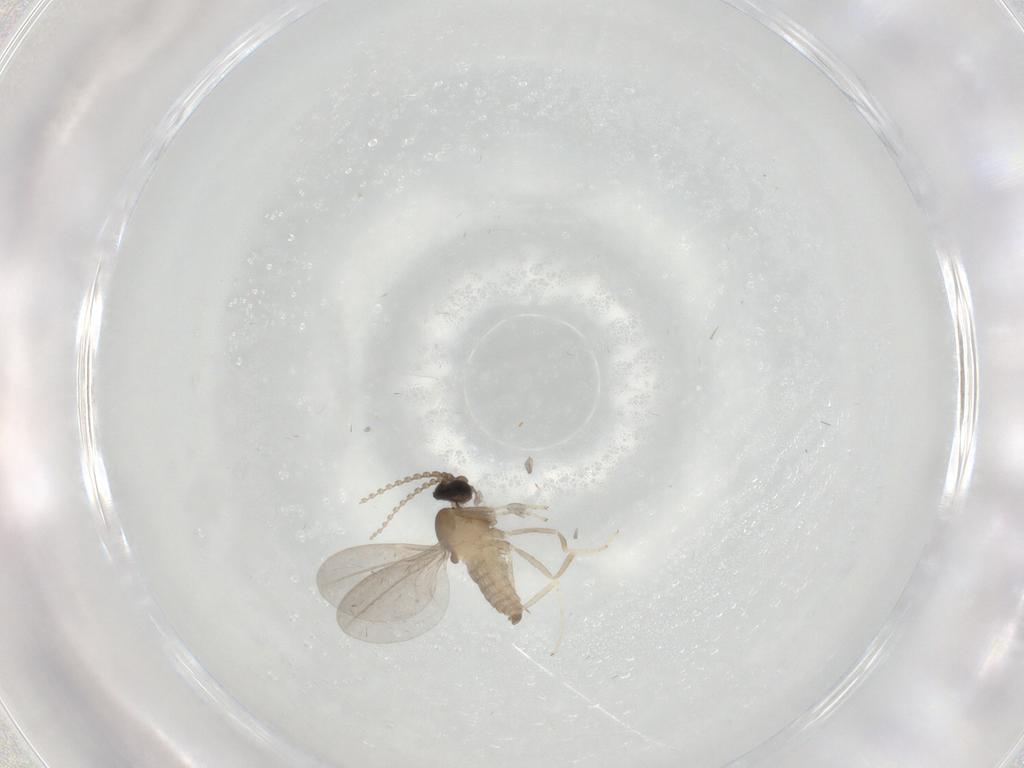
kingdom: Animalia
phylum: Arthropoda
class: Insecta
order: Diptera
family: Cecidomyiidae
